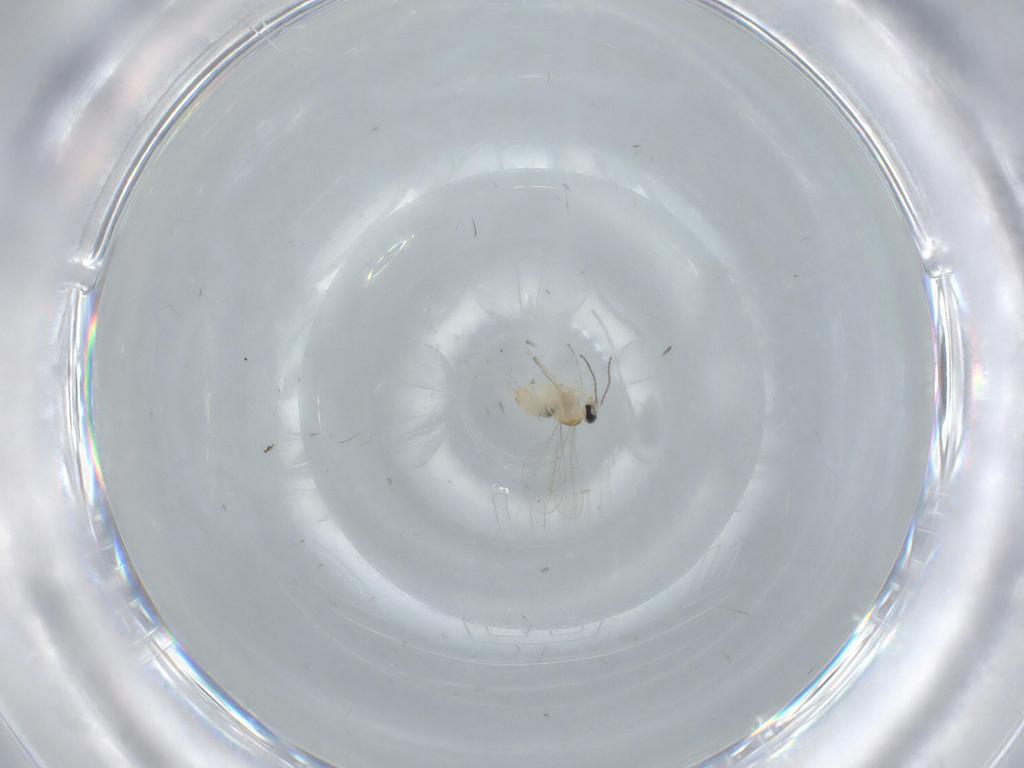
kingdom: Animalia
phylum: Arthropoda
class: Insecta
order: Diptera
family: Cecidomyiidae
